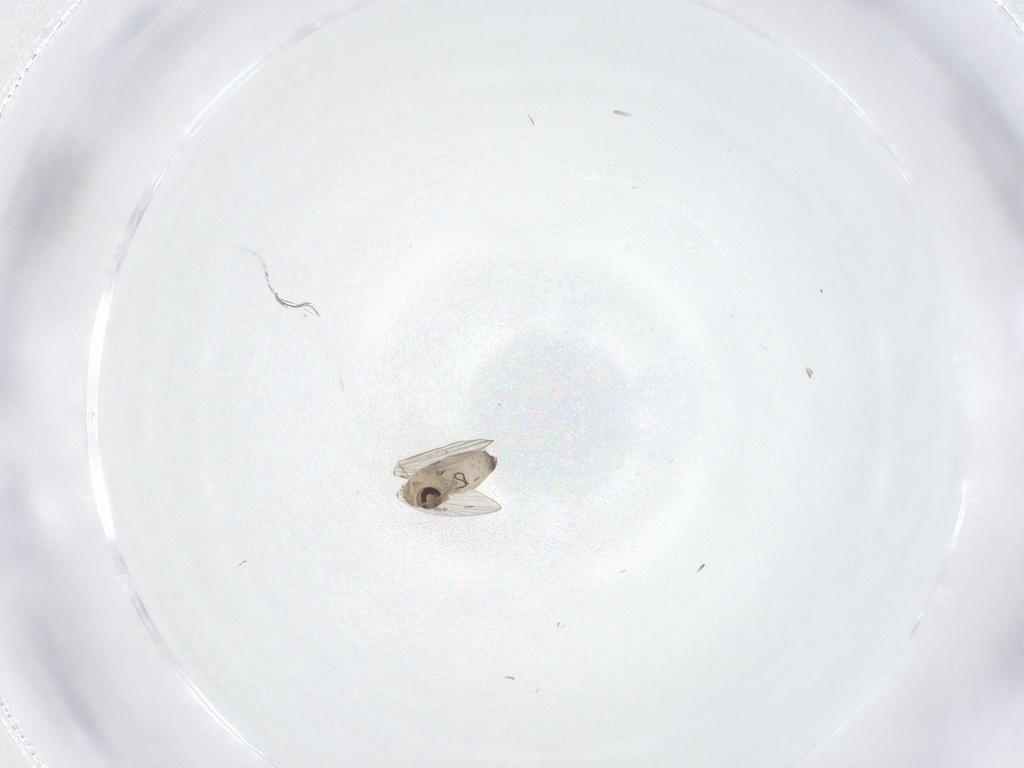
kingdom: Animalia
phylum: Arthropoda
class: Insecta
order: Diptera
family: Psychodidae
